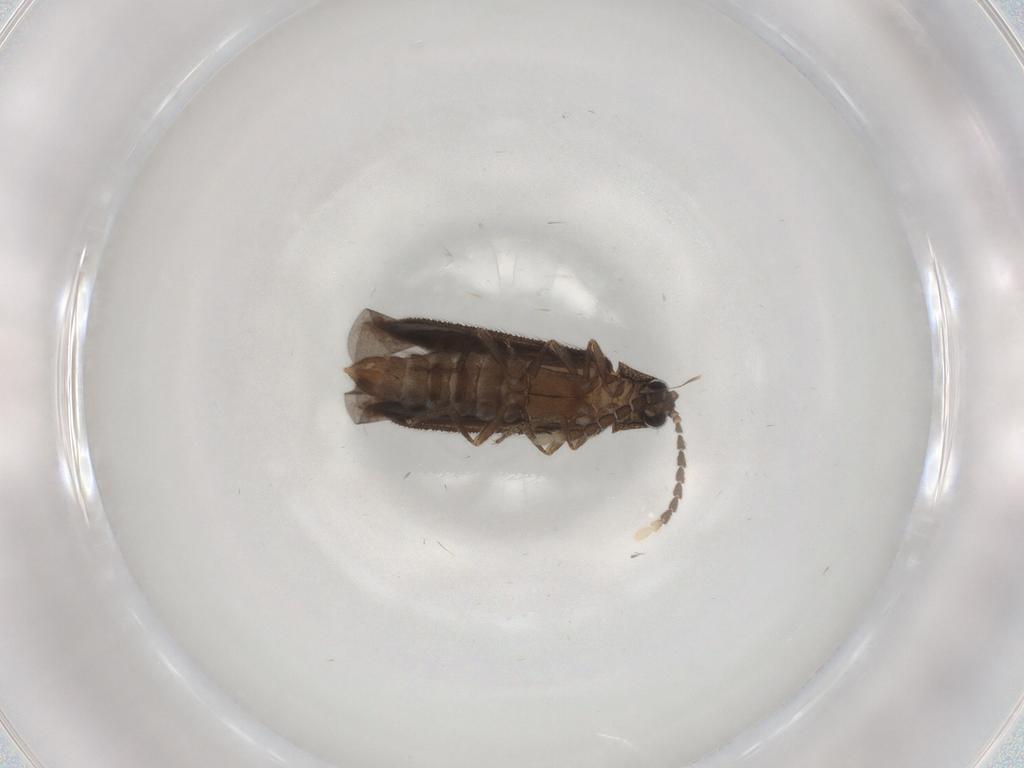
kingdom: Animalia
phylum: Arthropoda
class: Insecta
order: Coleoptera
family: Lycidae
